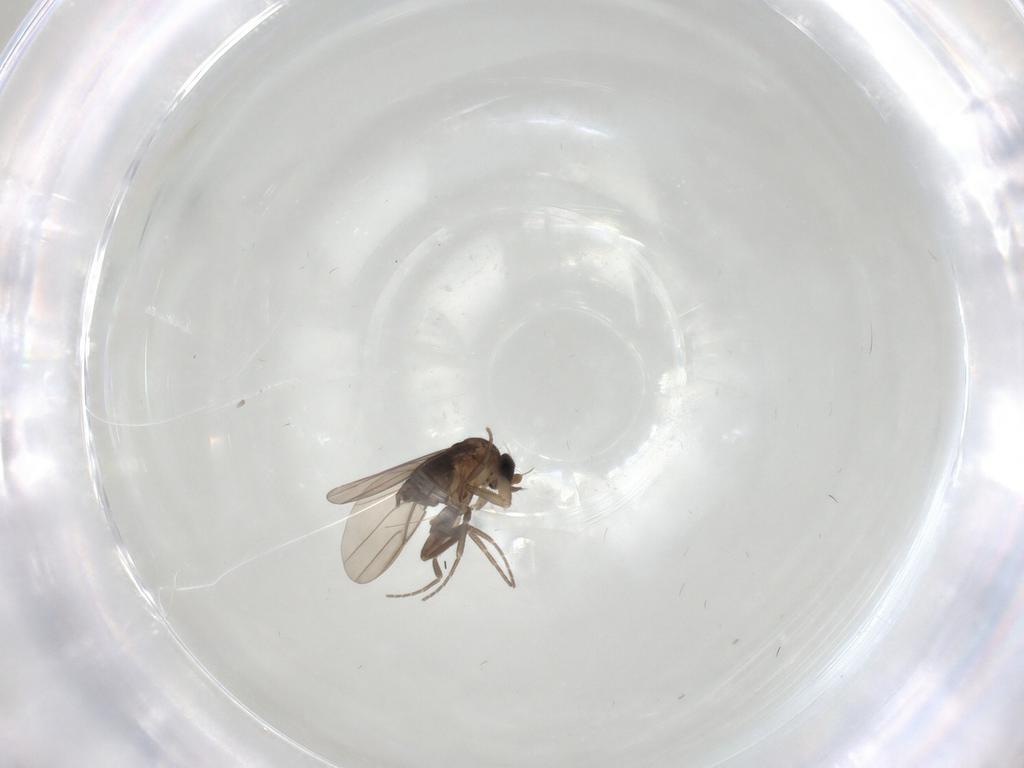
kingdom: Animalia
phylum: Arthropoda
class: Insecta
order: Diptera
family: Phoridae
